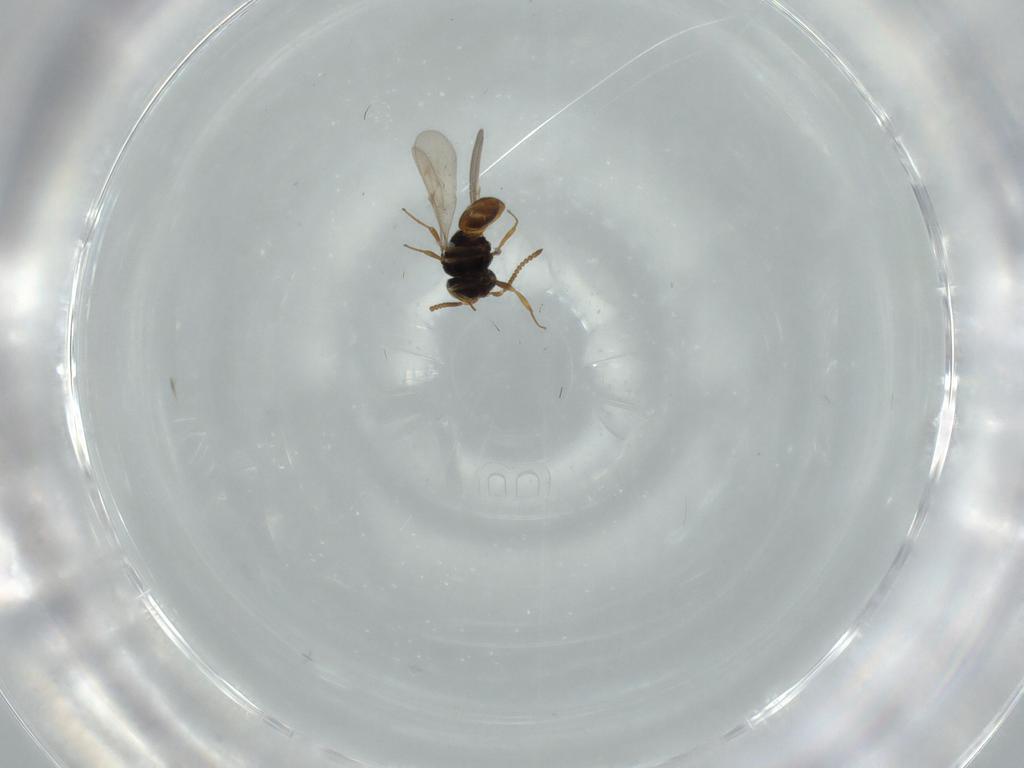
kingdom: Animalia
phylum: Arthropoda
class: Insecta
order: Hymenoptera
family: Scelionidae
